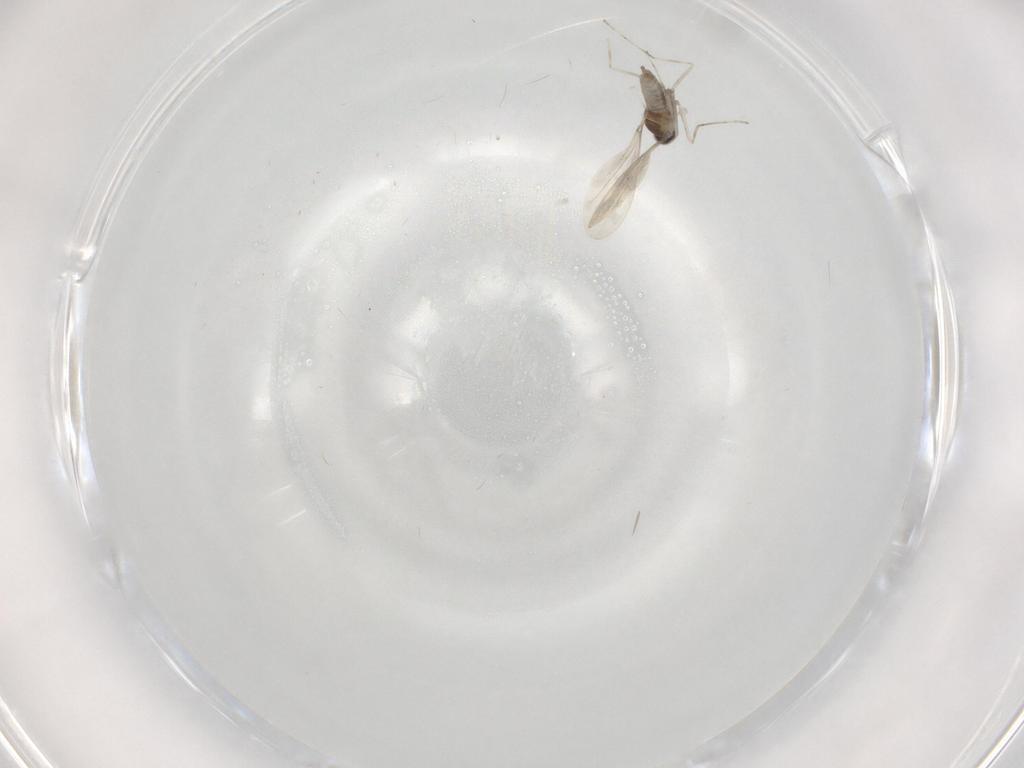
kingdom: Animalia
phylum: Arthropoda
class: Insecta
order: Diptera
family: Cecidomyiidae
